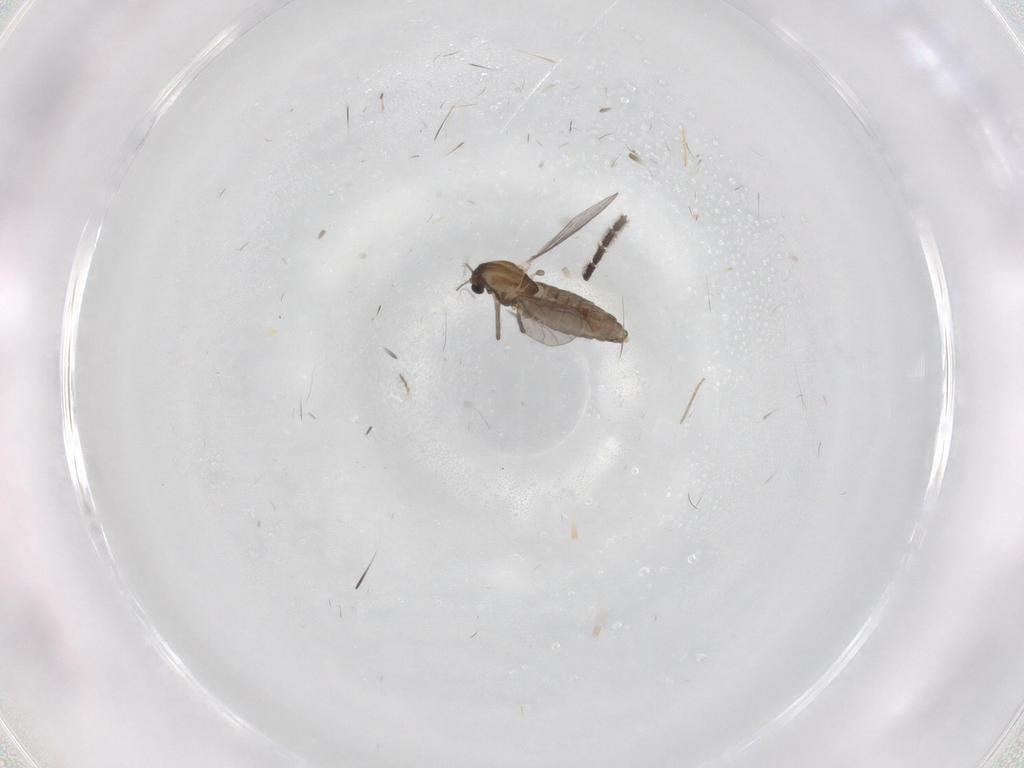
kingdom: Animalia
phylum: Arthropoda
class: Insecta
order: Diptera
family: Chironomidae
